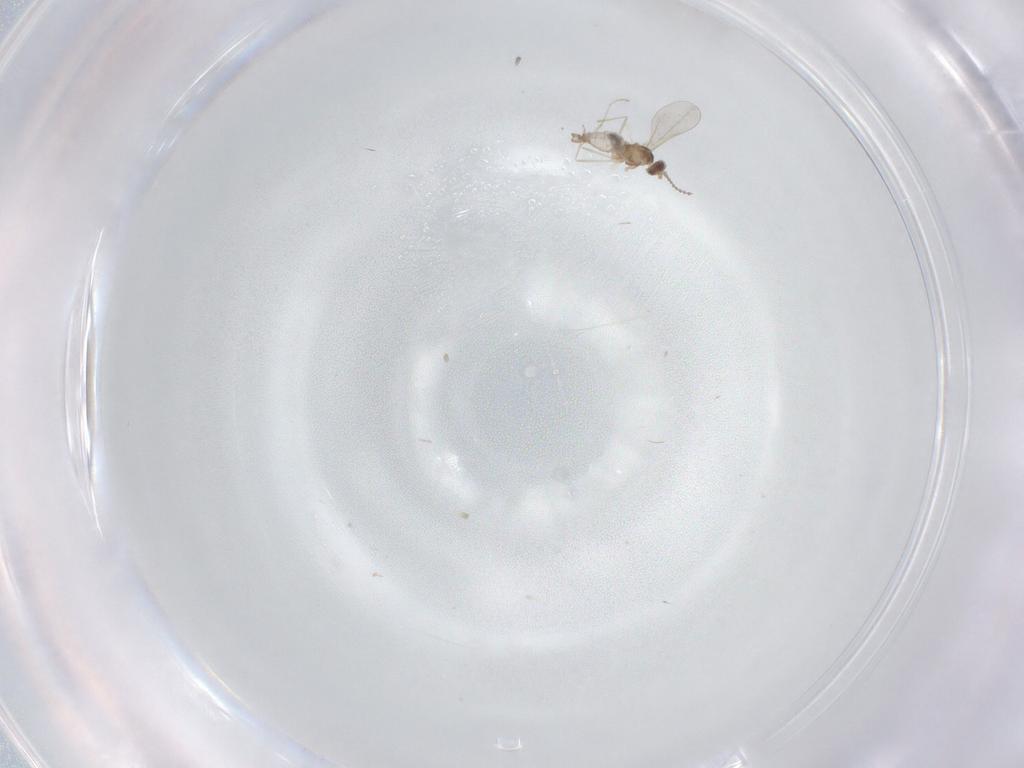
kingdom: Animalia
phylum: Arthropoda
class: Insecta
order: Diptera
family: Cecidomyiidae
